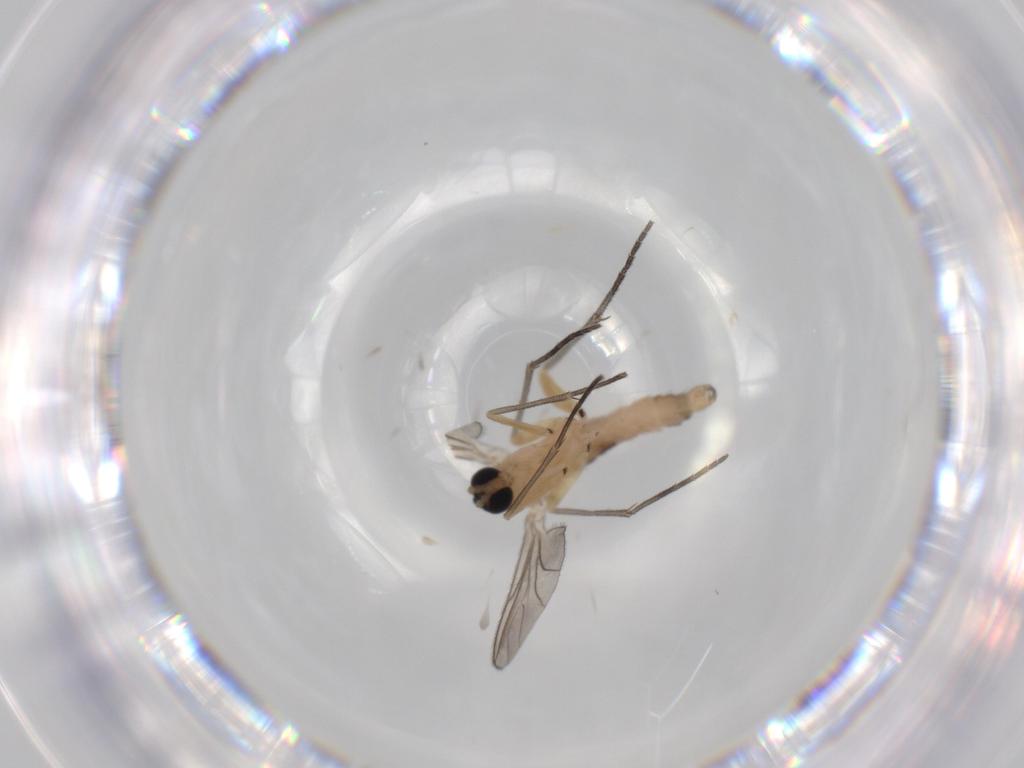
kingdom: Animalia
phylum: Arthropoda
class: Insecta
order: Diptera
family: Sciaridae
